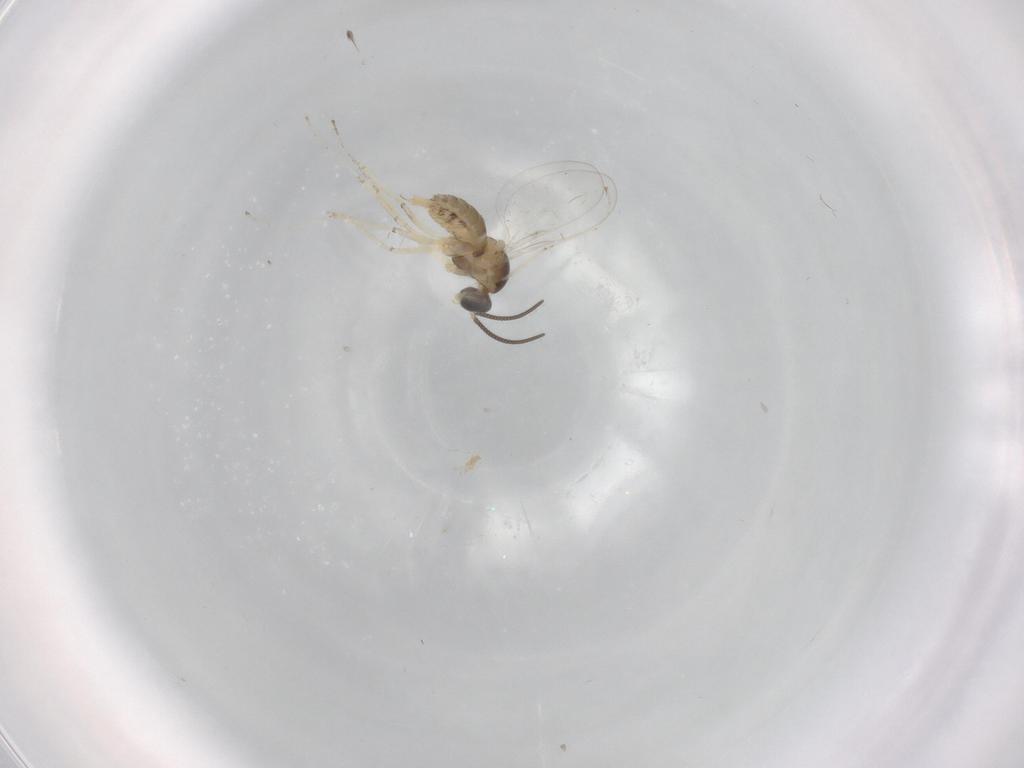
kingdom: Animalia
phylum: Arthropoda
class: Insecta
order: Diptera
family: Cecidomyiidae
